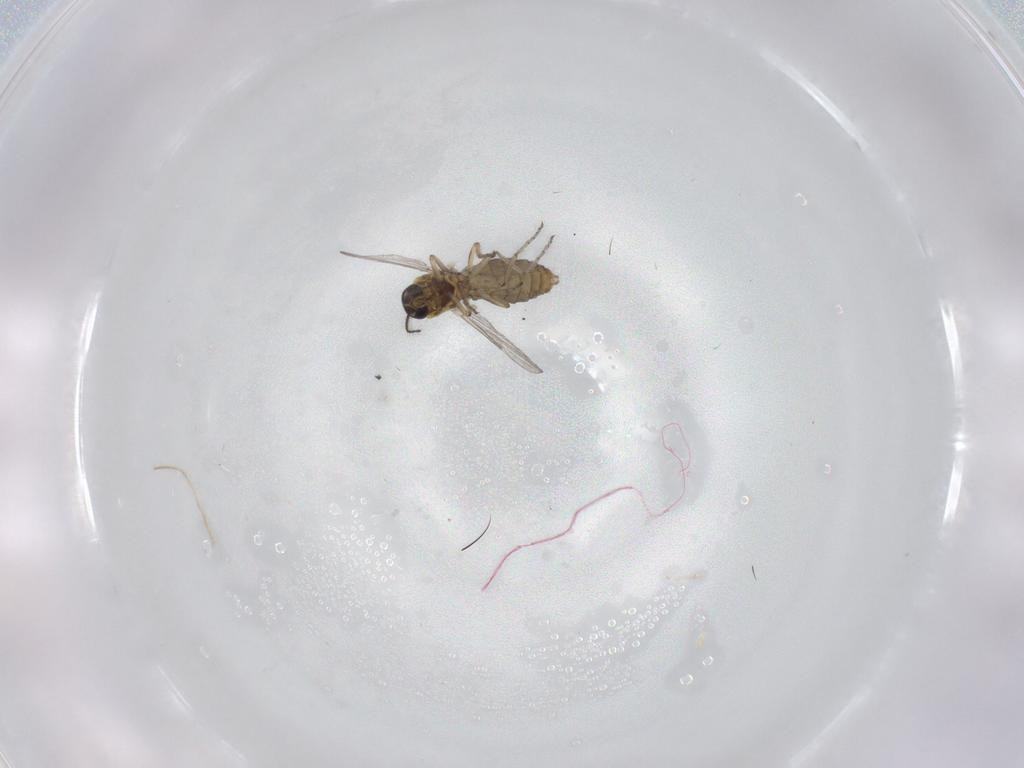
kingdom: Animalia
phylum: Arthropoda
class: Insecta
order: Diptera
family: Ceratopogonidae
